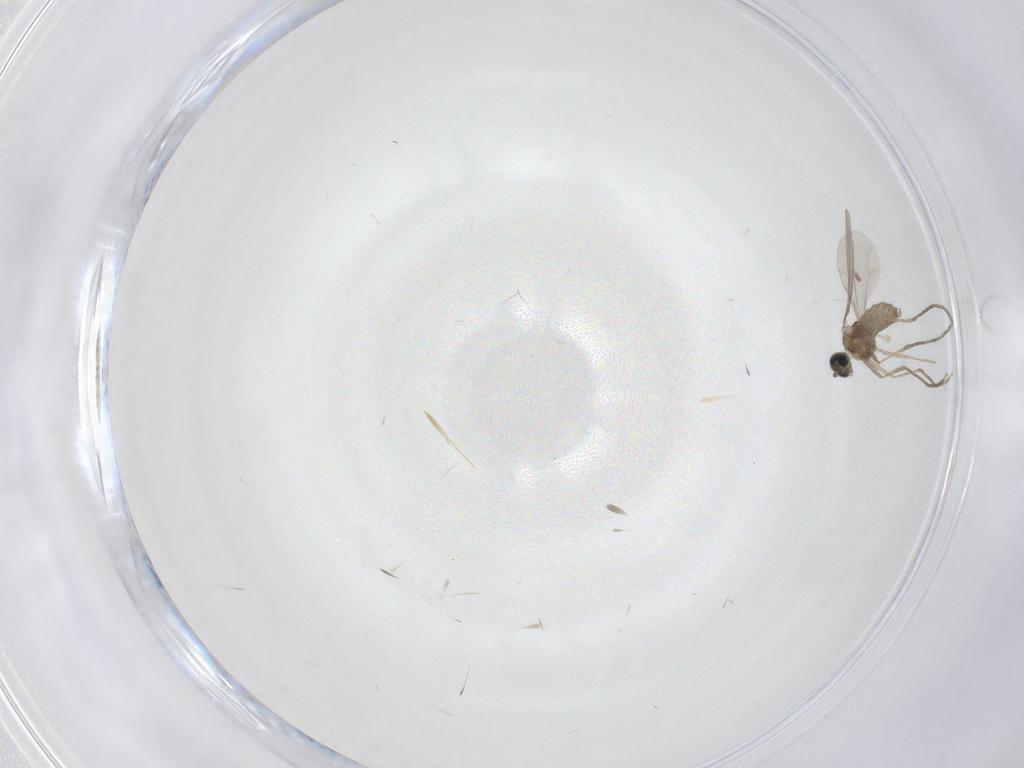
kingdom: Animalia
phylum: Arthropoda
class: Insecta
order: Diptera
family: Cecidomyiidae
